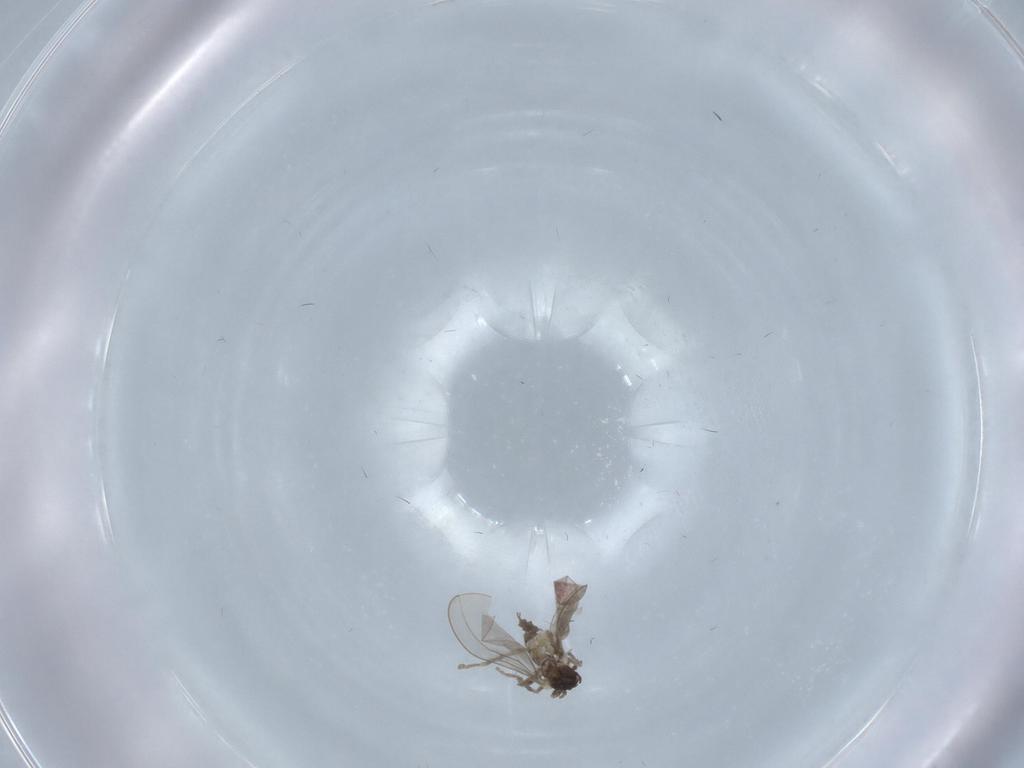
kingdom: Animalia
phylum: Arthropoda
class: Insecta
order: Diptera
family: Cecidomyiidae
